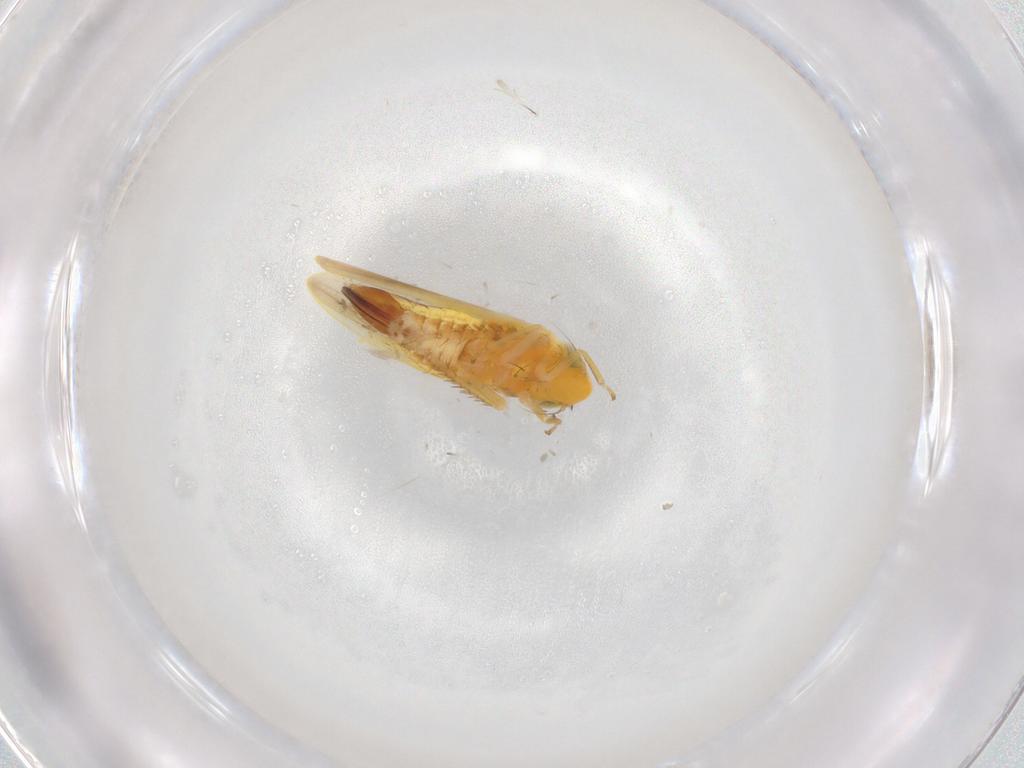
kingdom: Animalia
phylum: Arthropoda
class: Insecta
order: Hemiptera
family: Cicadellidae
